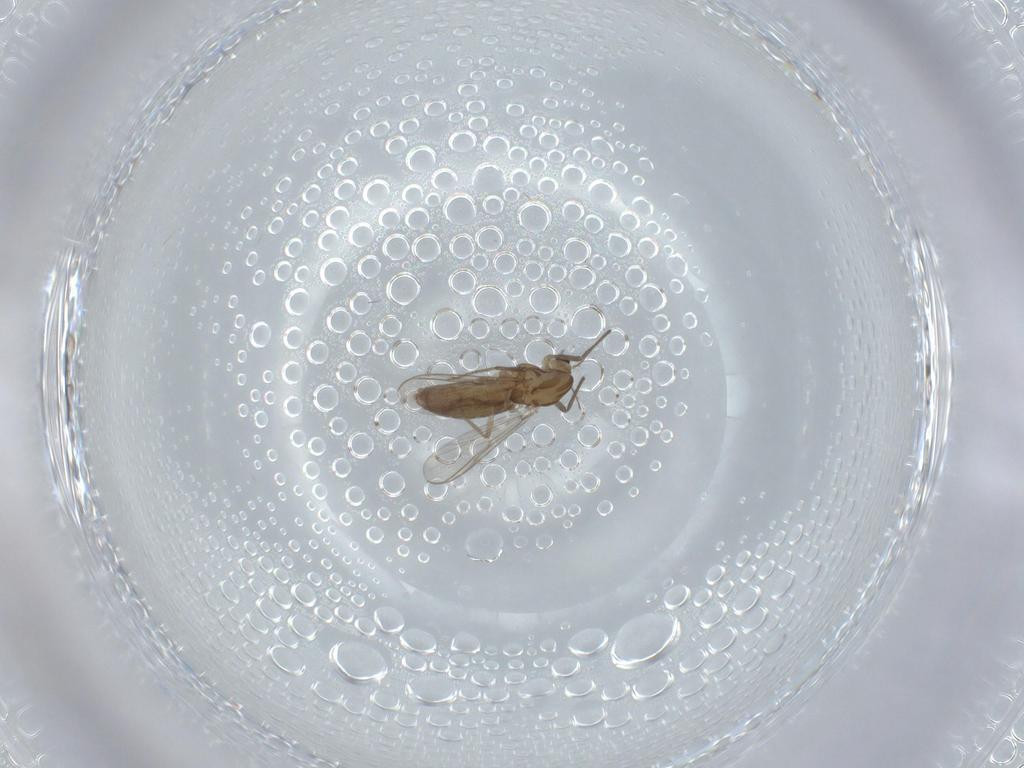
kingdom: Animalia
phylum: Arthropoda
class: Insecta
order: Diptera
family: Chironomidae
